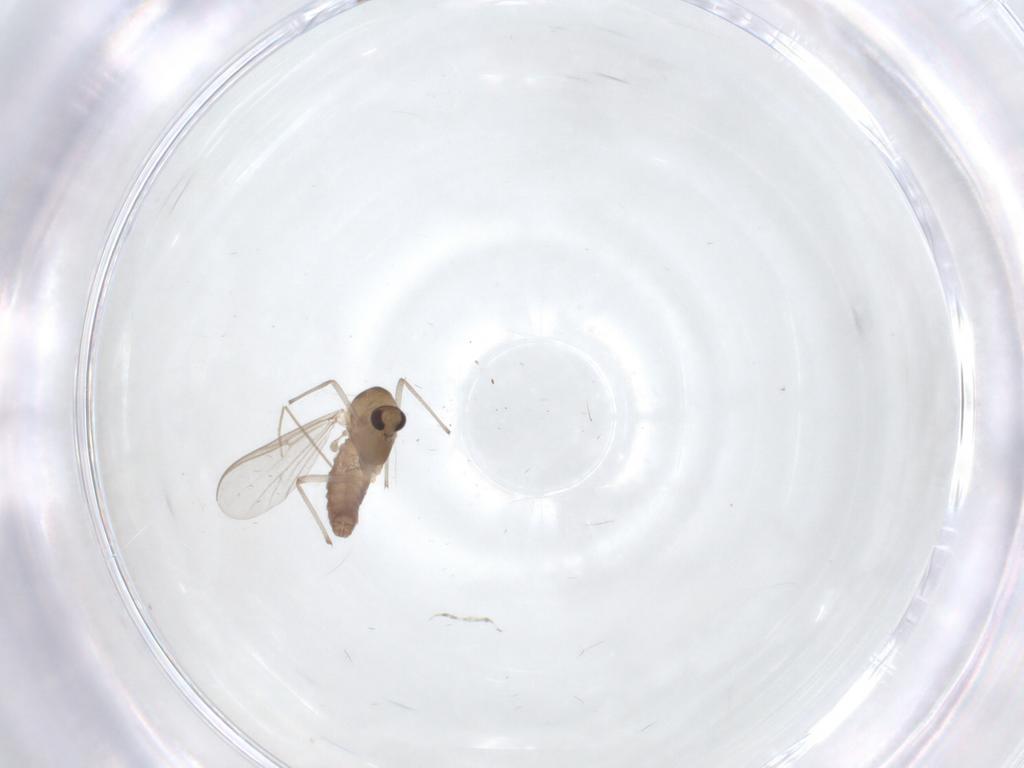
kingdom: Animalia
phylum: Arthropoda
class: Insecta
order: Diptera
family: Chironomidae
